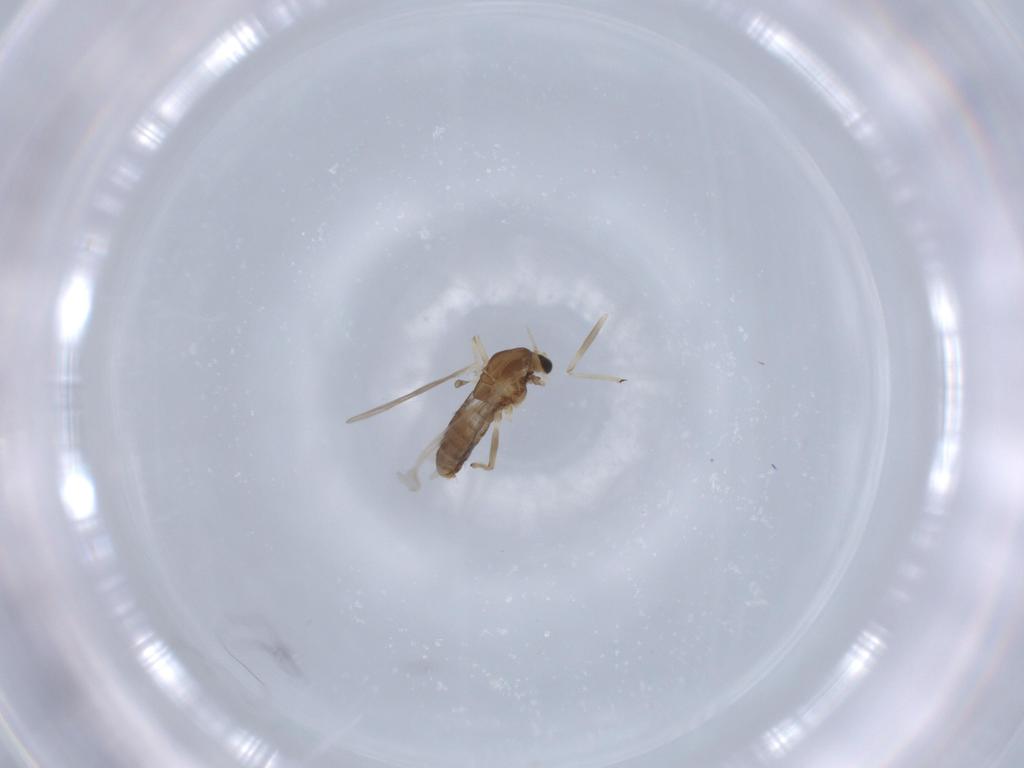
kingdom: Animalia
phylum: Arthropoda
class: Insecta
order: Diptera
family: Chironomidae
